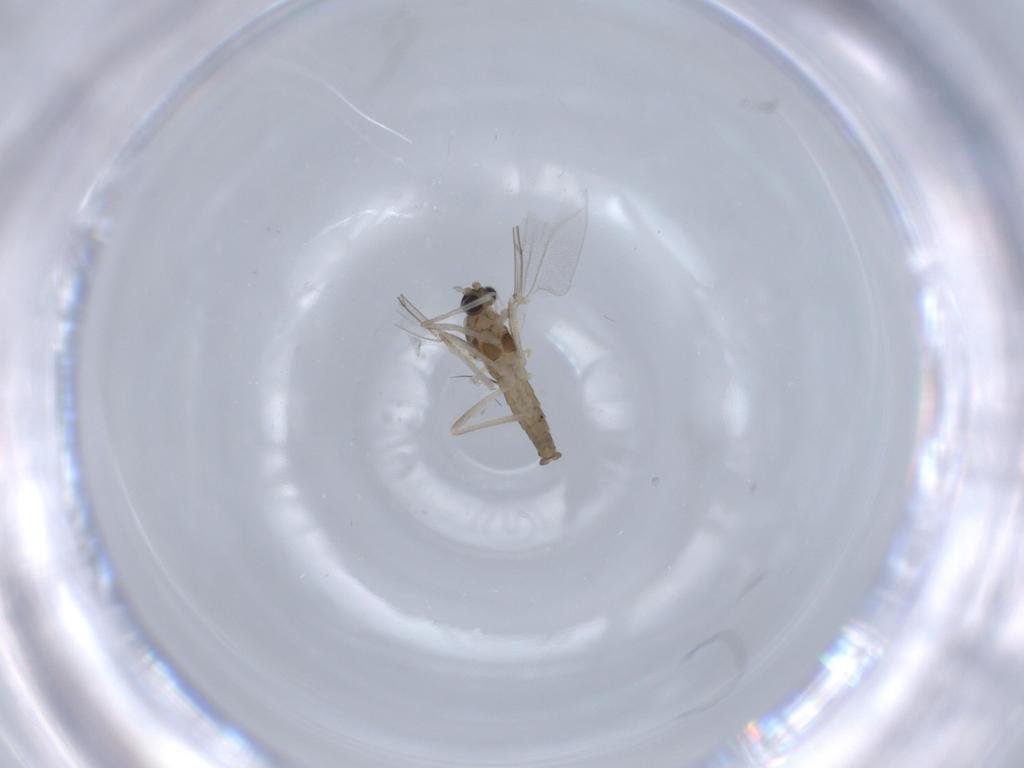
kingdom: Animalia
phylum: Arthropoda
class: Insecta
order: Diptera
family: Cecidomyiidae
